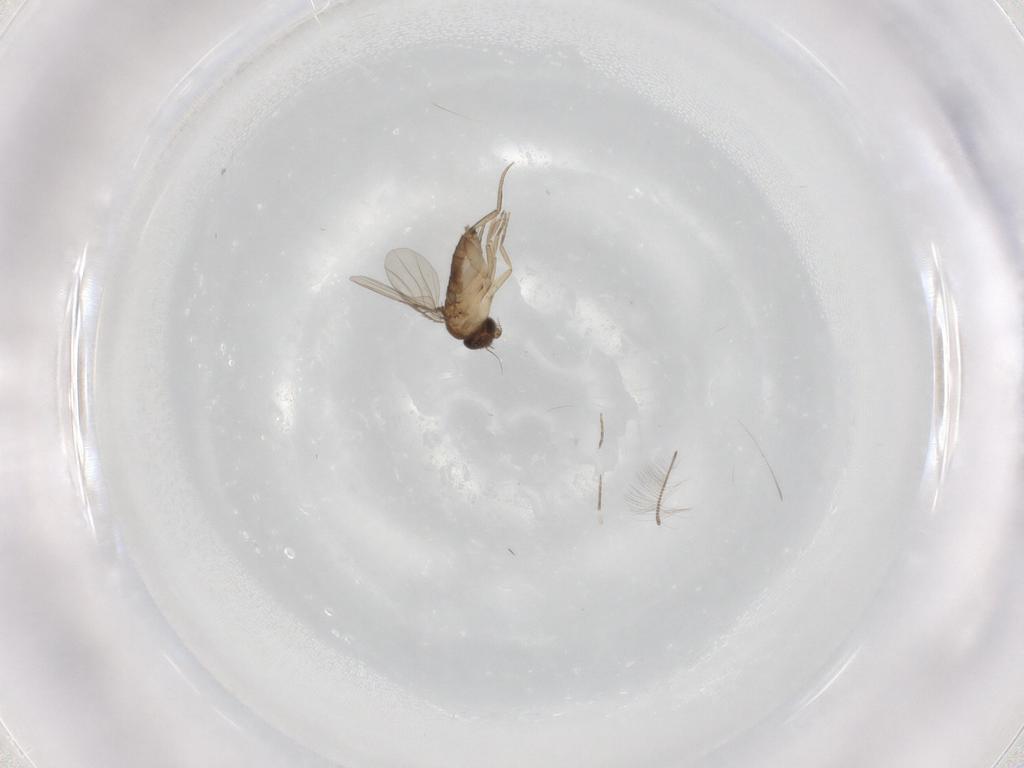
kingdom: Animalia
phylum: Arthropoda
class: Insecta
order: Diptera
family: Phoridae
